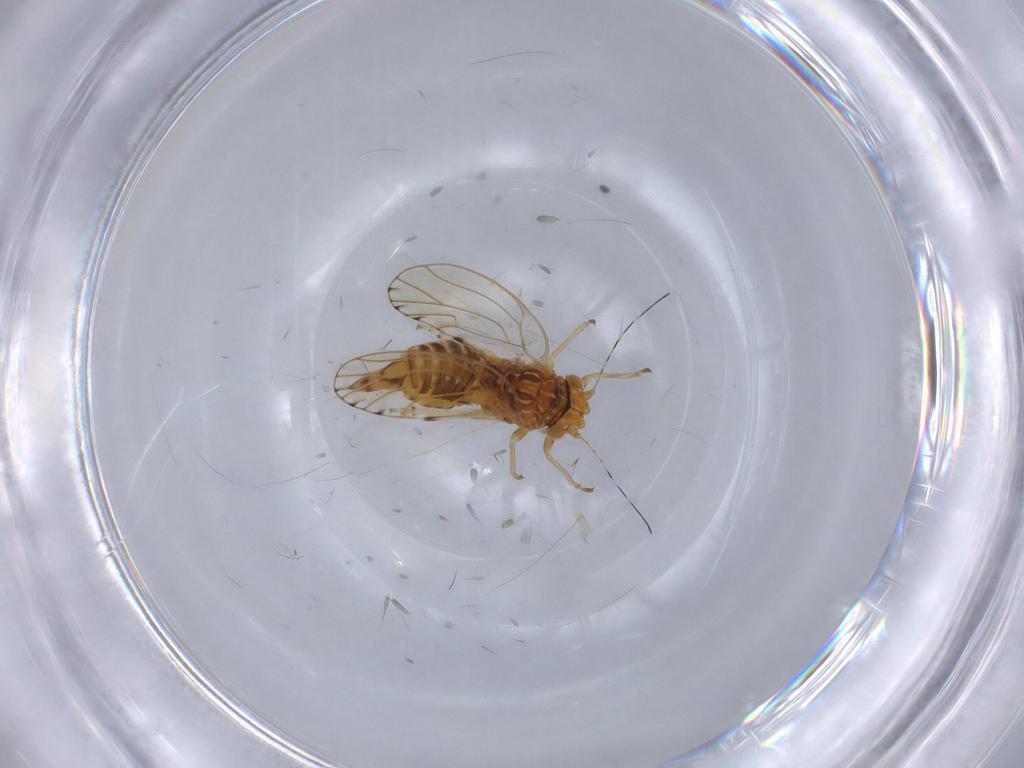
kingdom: Animalia
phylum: Arthropoda
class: Insecta
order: Hemiptera
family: Psylloidea_incertae_sedis
